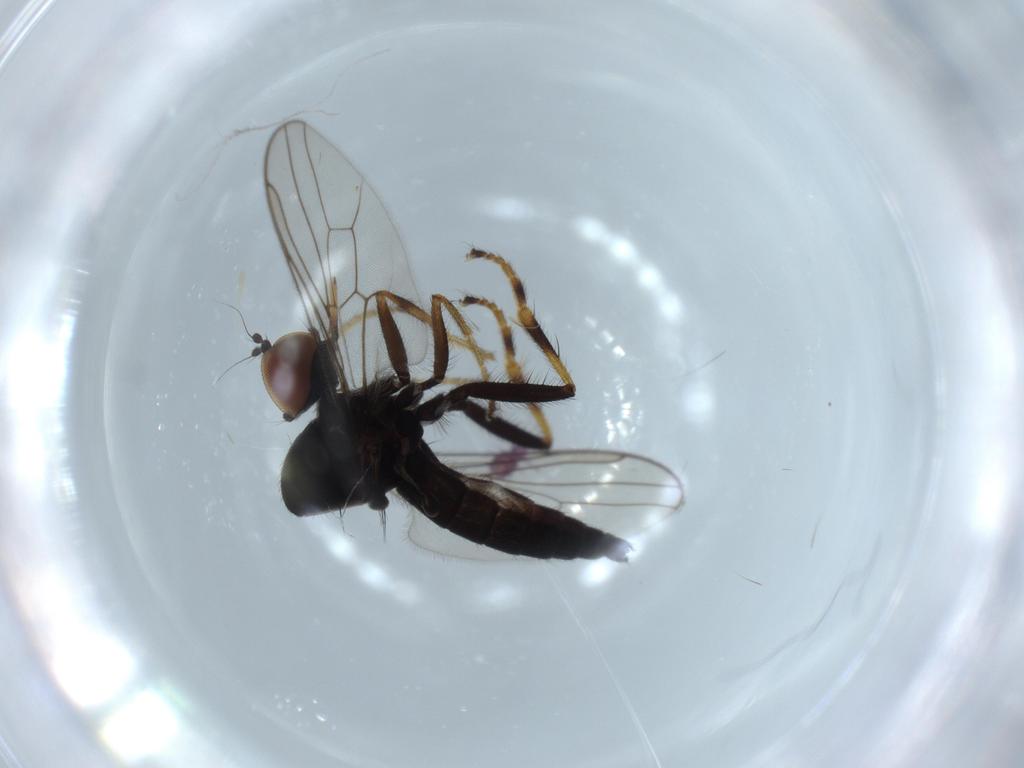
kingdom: Animalia
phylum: Arthropoda
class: Insecta
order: Diptera
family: Hybotidae
